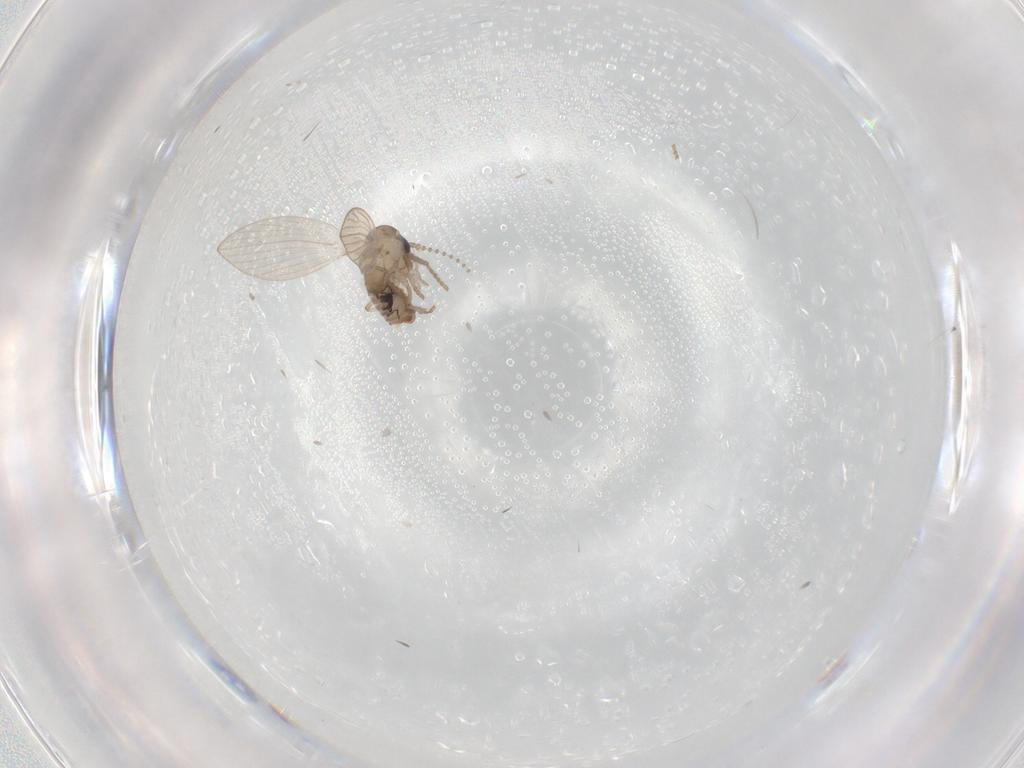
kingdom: Animalia
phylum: Arthropoda
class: Insecta
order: Diptera
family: Psychodidae
